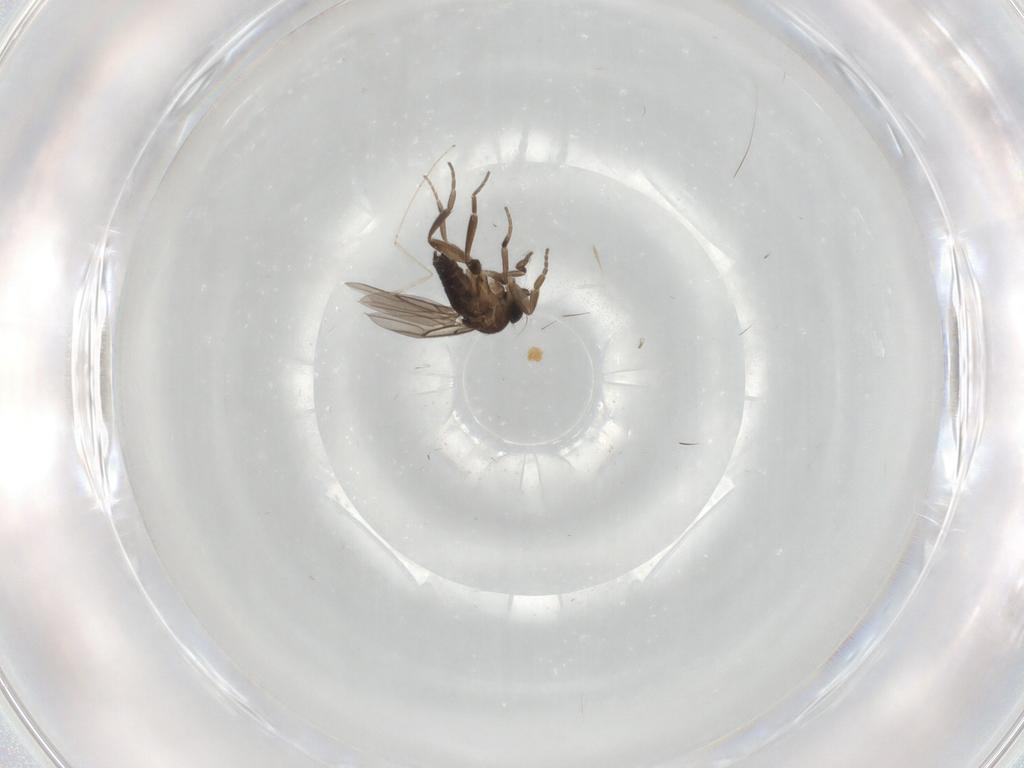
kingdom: Animalia
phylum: Arthropoda
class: Insecta
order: Diptera
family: Phoridae
